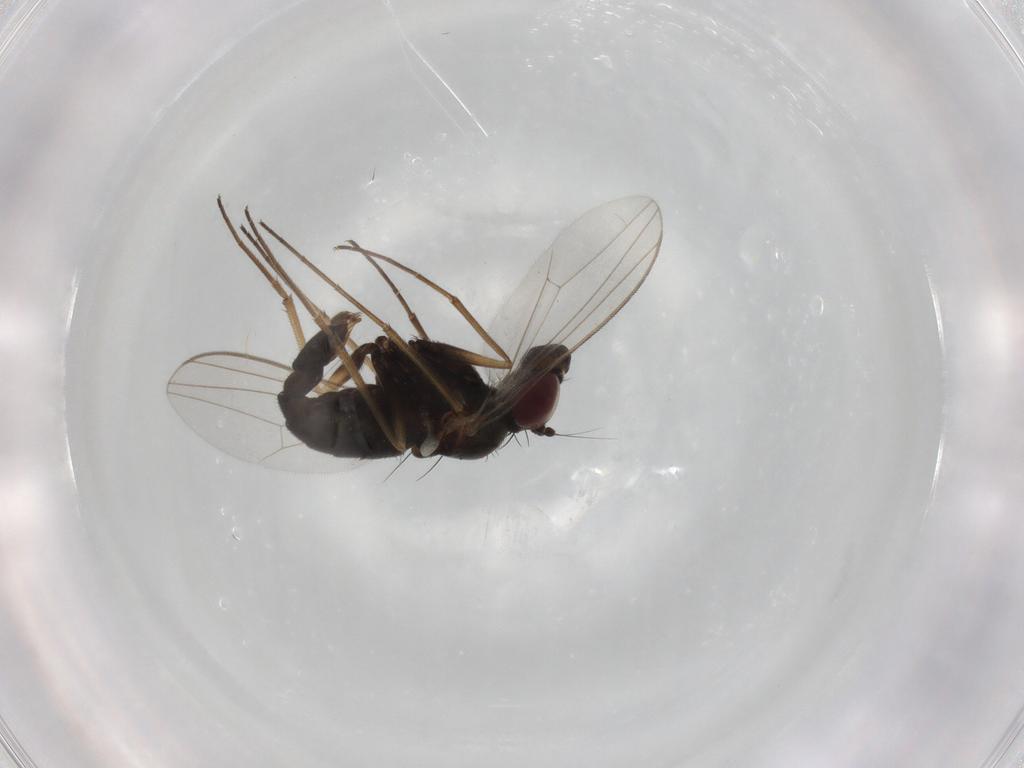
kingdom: Animalia
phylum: Arthropoda
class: Insecta
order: Diptera
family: Dolichopodidae
